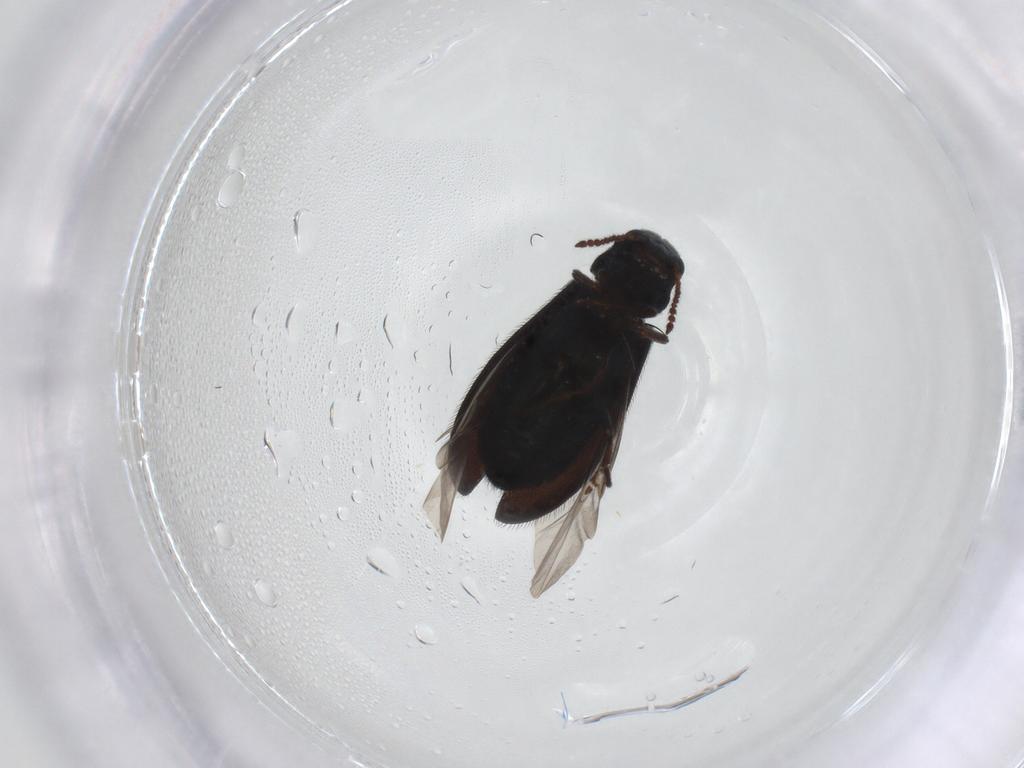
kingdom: Animalia
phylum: Arthropoda
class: Insecta
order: Coleoptera
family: Melyridae
